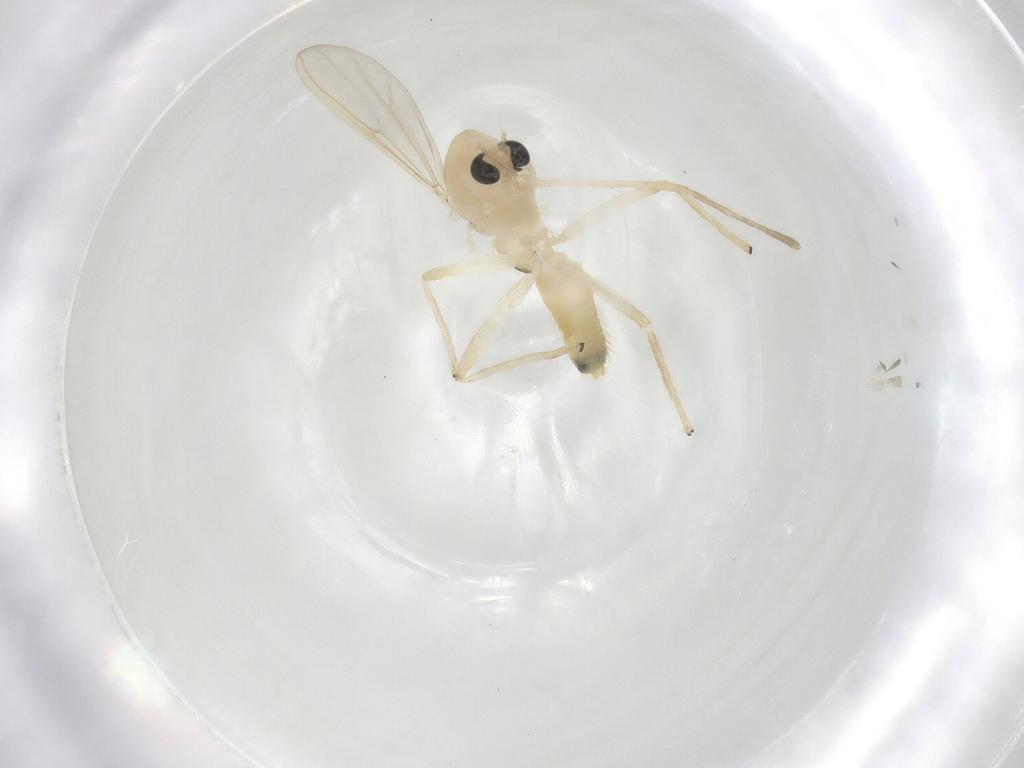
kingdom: Animalia
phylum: Arthropoda
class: Insecta
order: Diptera
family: Chironomidae
